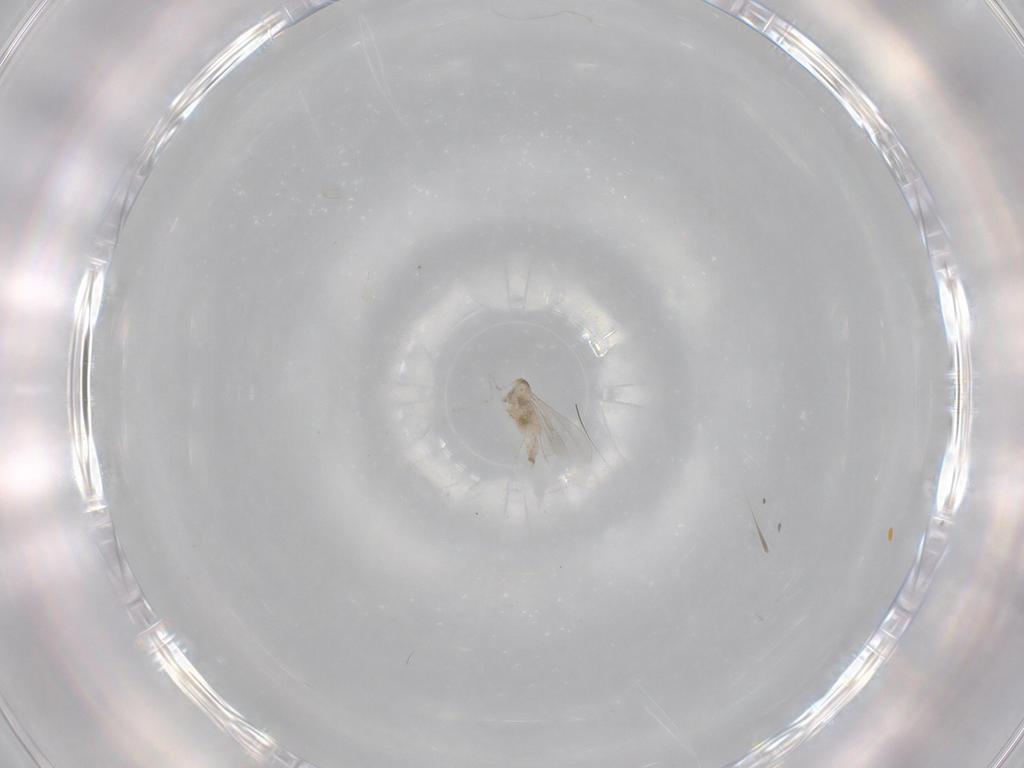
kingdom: Animalia
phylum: Arthropoda
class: Insecta
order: Diptera
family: Cecidomyiidae
